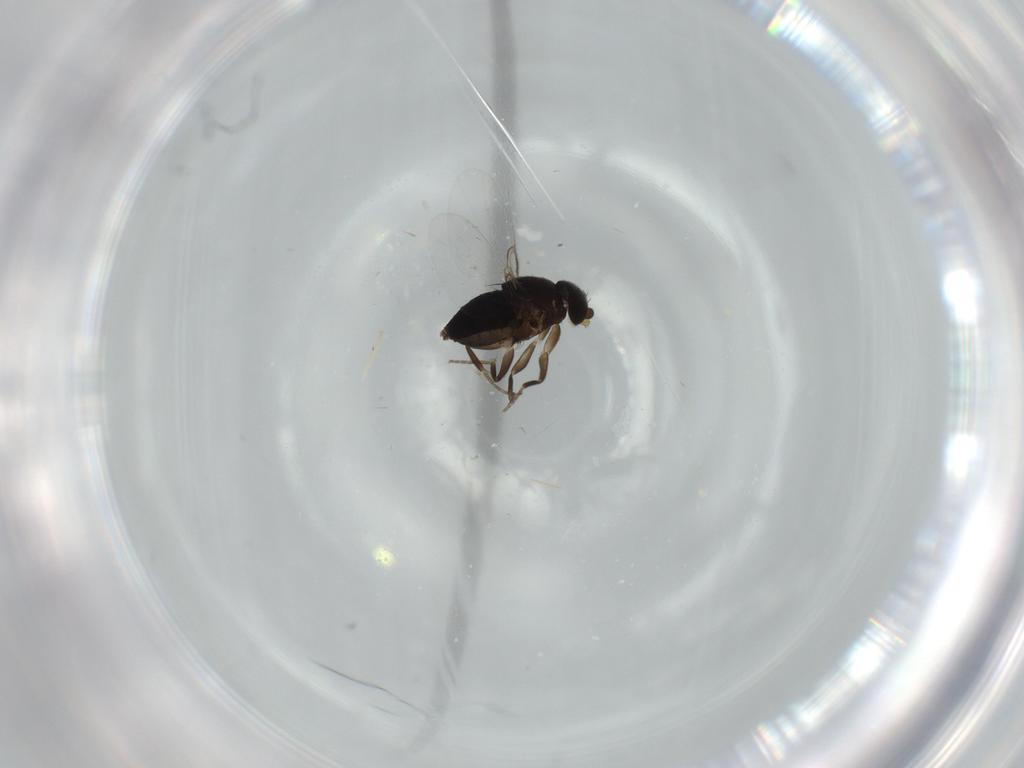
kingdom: Animalia
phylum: Arthropoda
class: Insecta
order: Diptera
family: Phoridae
